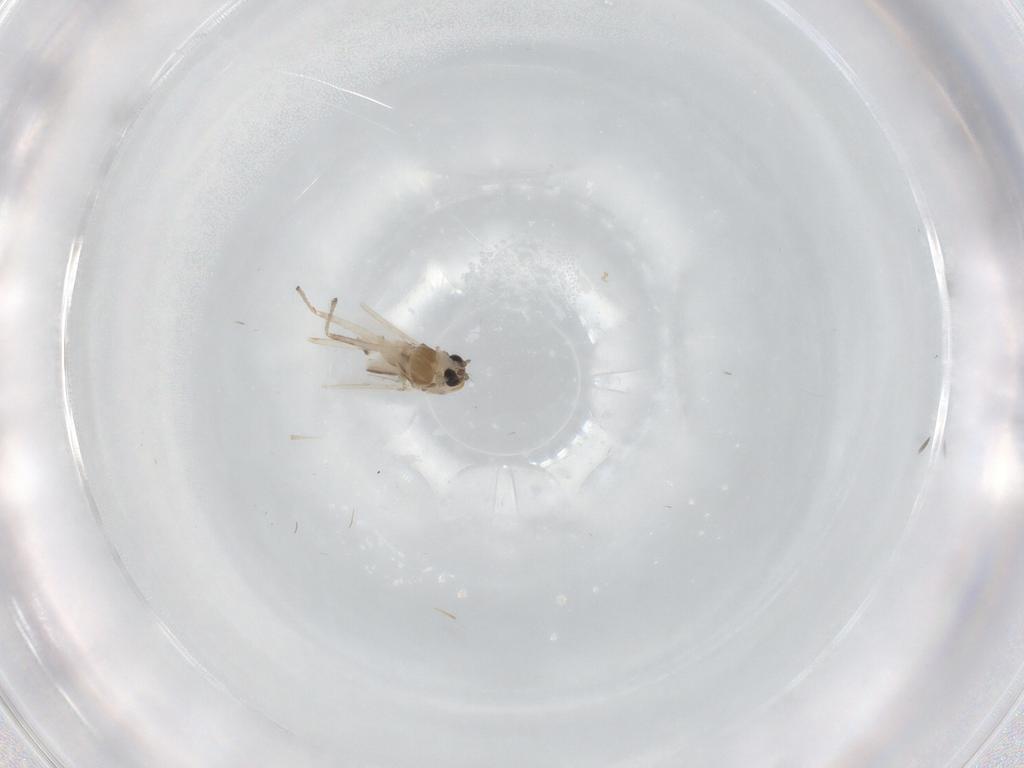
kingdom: Animalia
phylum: Arthropoda
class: Insecta
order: Diptera
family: Chironomidae
